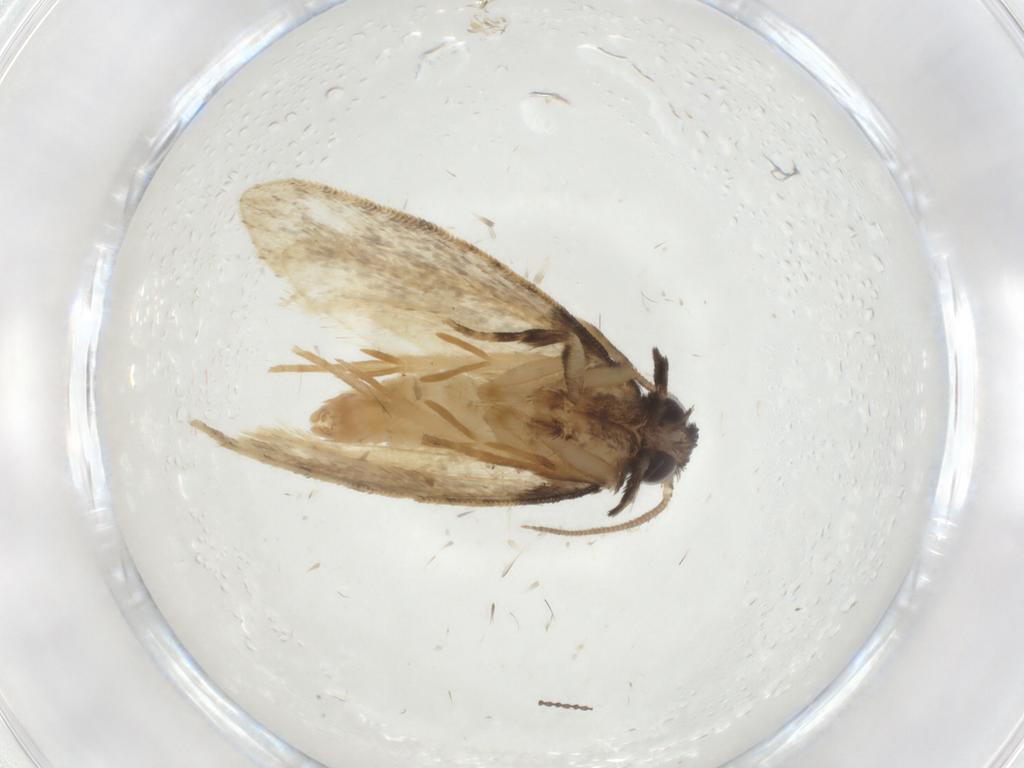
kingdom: Animalia
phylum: Arthropoda
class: Insecta
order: Lepidoptera
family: Psychidae
